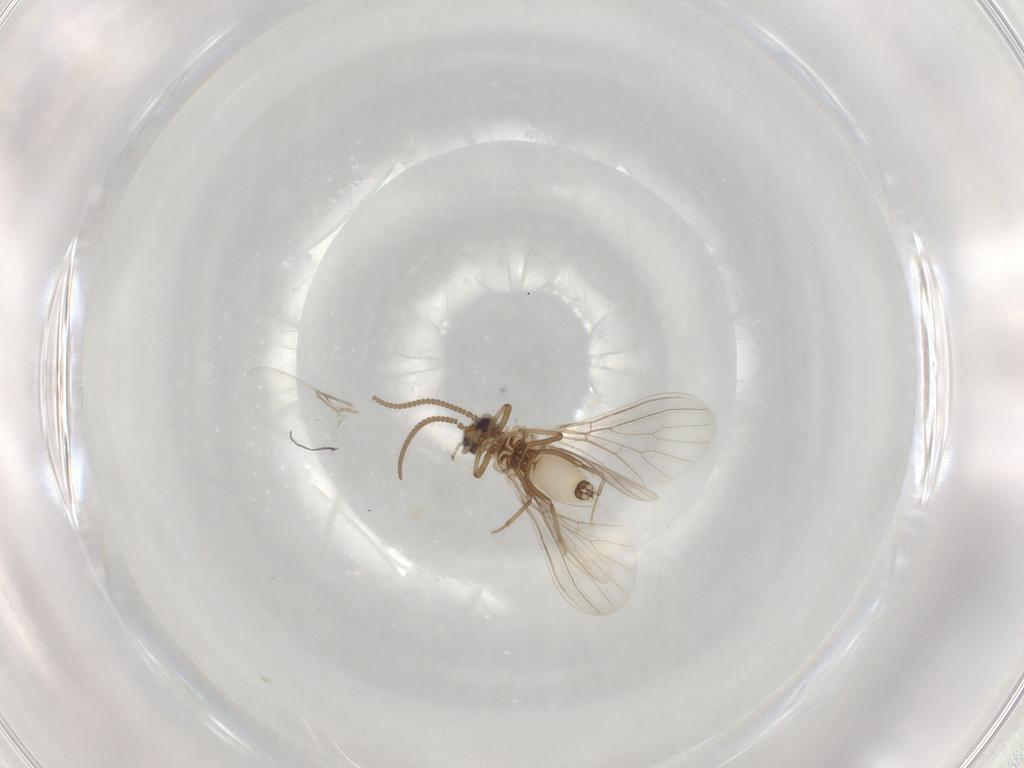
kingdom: Animalia
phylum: Arthropoda
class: Insecta
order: Neuroptera
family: Coniopterygidae
